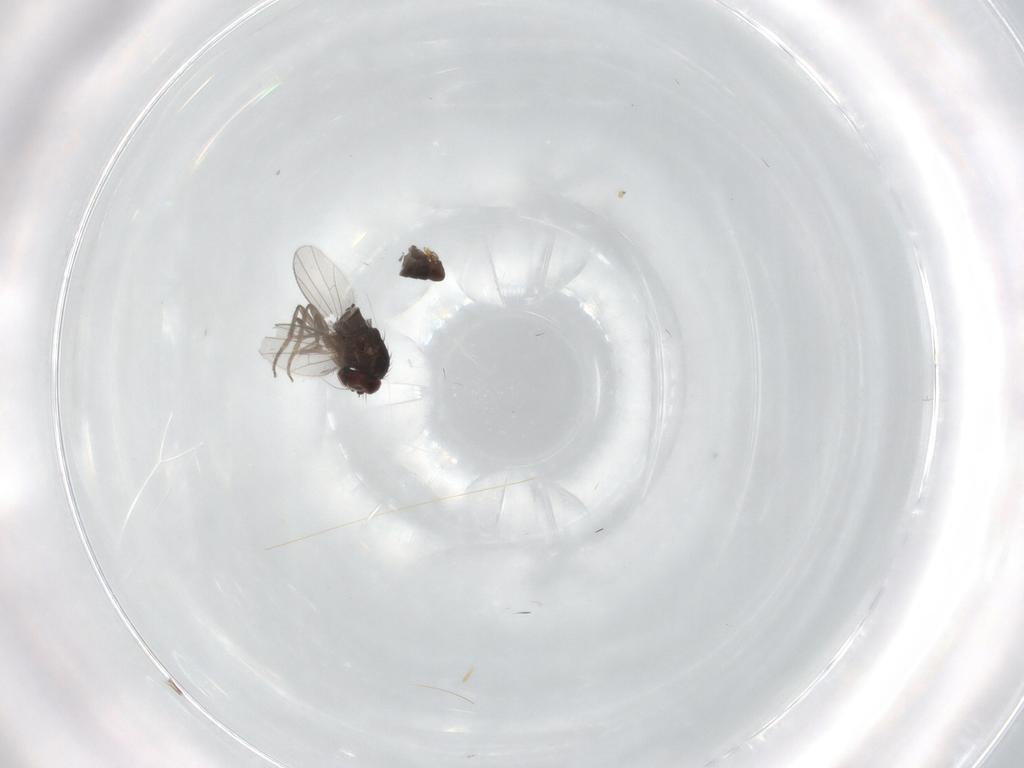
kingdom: Animalia
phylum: Arthropoda
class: Insecta
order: Diptera
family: Dolichopodidae
